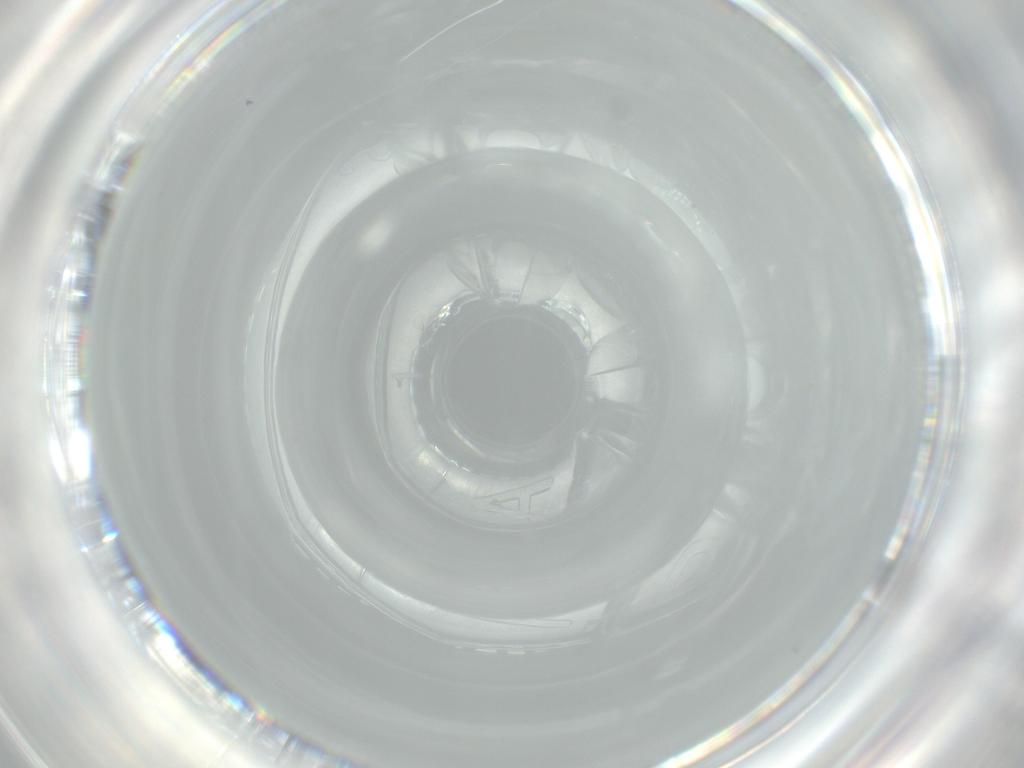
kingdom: Animalia
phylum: Arthropoda
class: Insecta
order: Diptera
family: Cecidomyiidae
